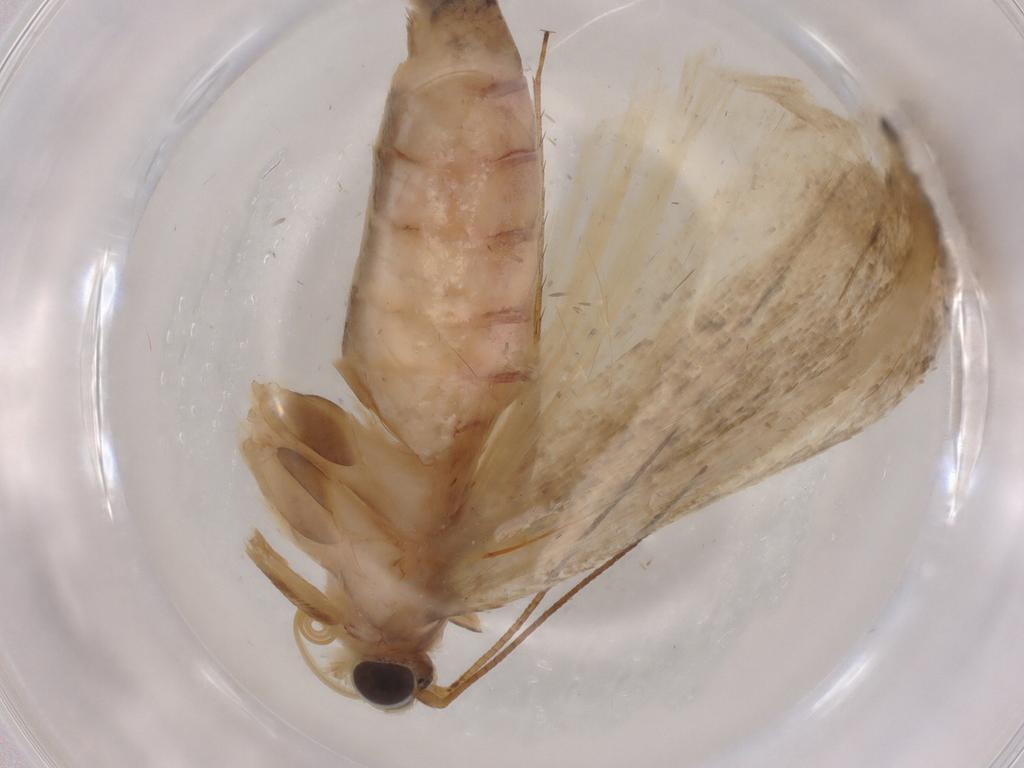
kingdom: Animalia
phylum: Arthropoda
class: Insecta
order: Lepidoptera
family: Crambidae
